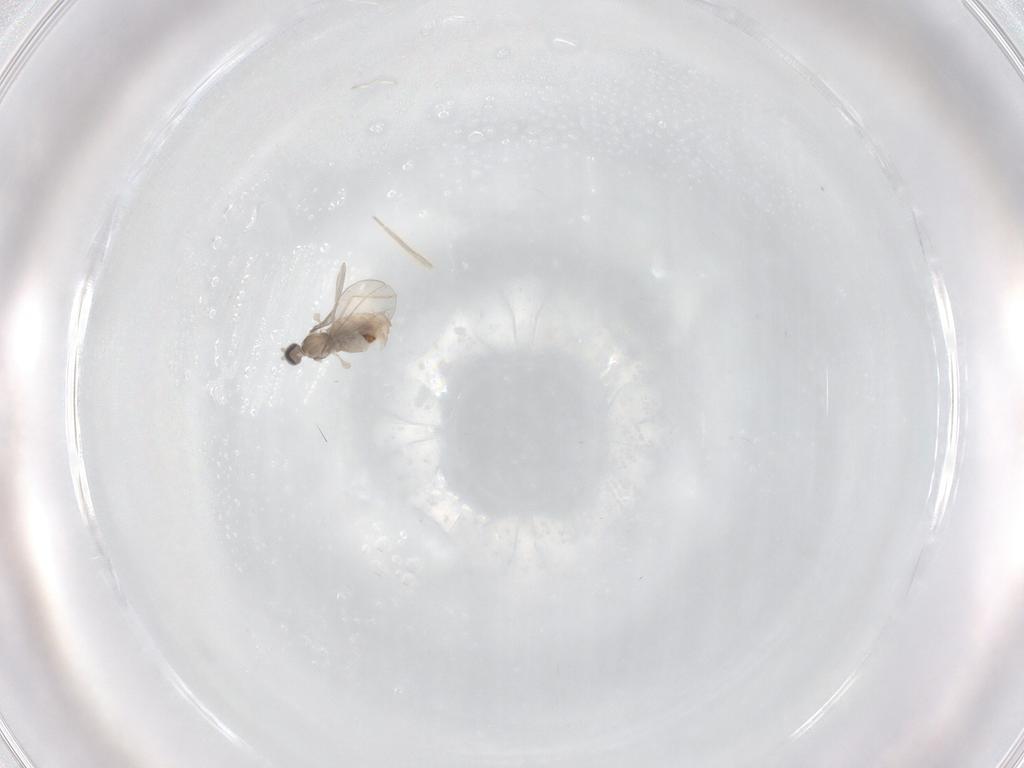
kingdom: Animalia
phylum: Arthropoda
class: Insecta
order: Diptera
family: Cecidomyiidae
